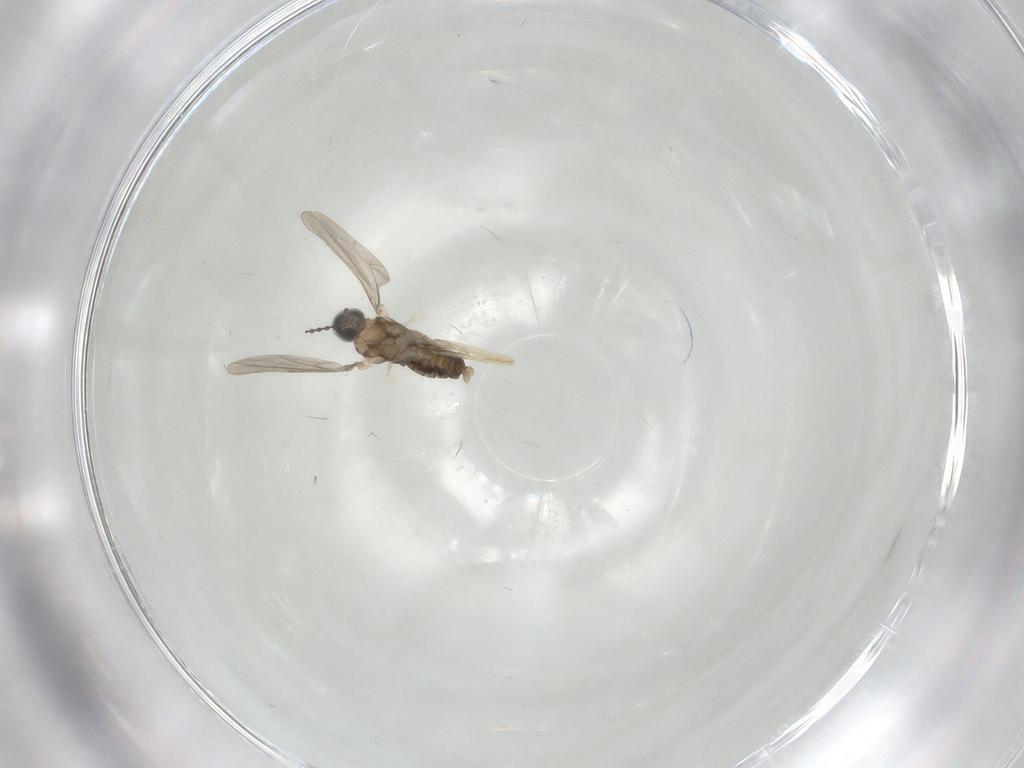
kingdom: Animalia
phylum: Arthropoda
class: Insecta
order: Diptera
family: Cecidomyiidae
